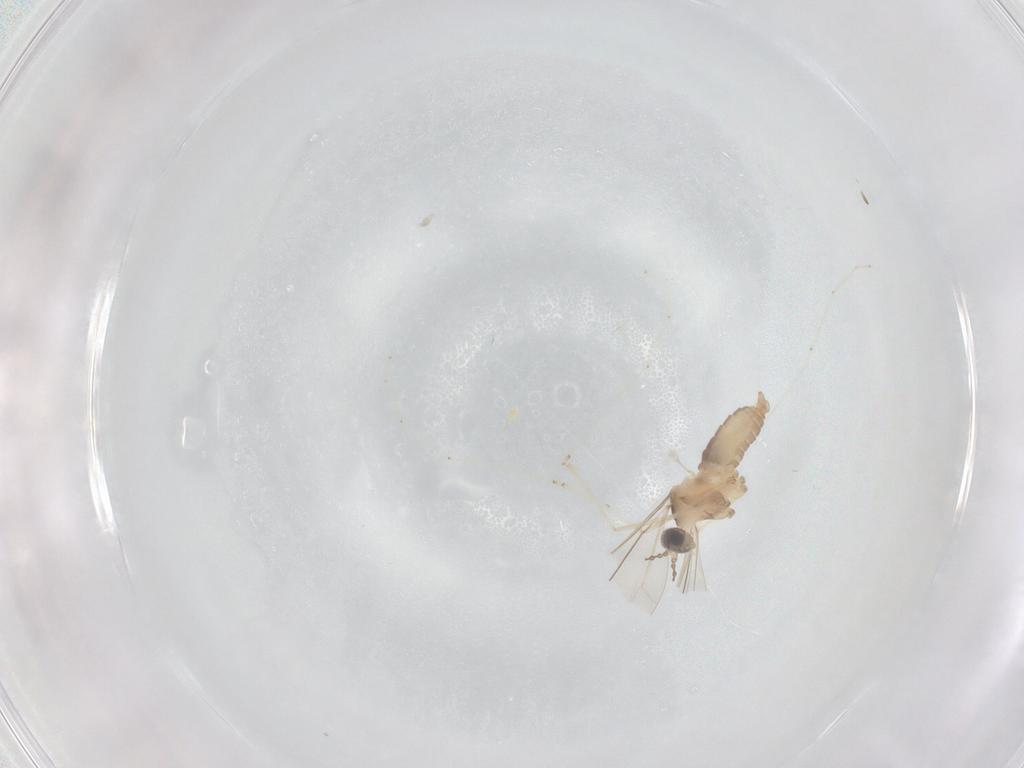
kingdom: Animalia
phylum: Arthropoda
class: Insecta
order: Diptera
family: Cecidomyiidae
